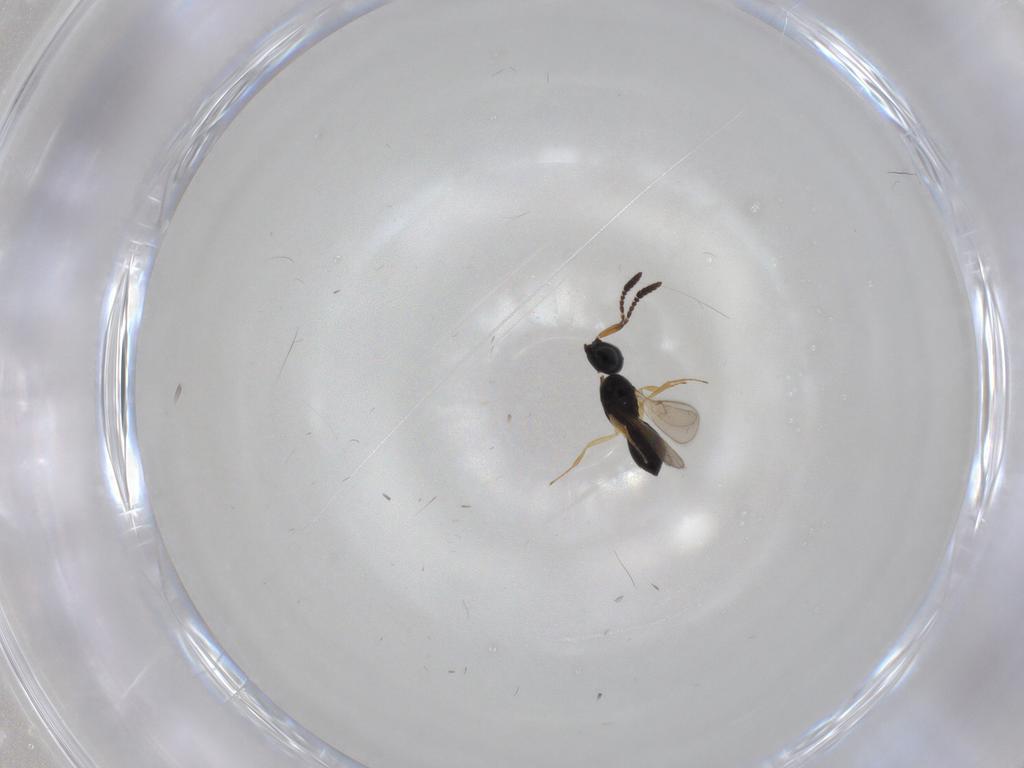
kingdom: Animalia
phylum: Arthropoda
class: Insecta
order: Hymenoptera
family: Scelionidae
